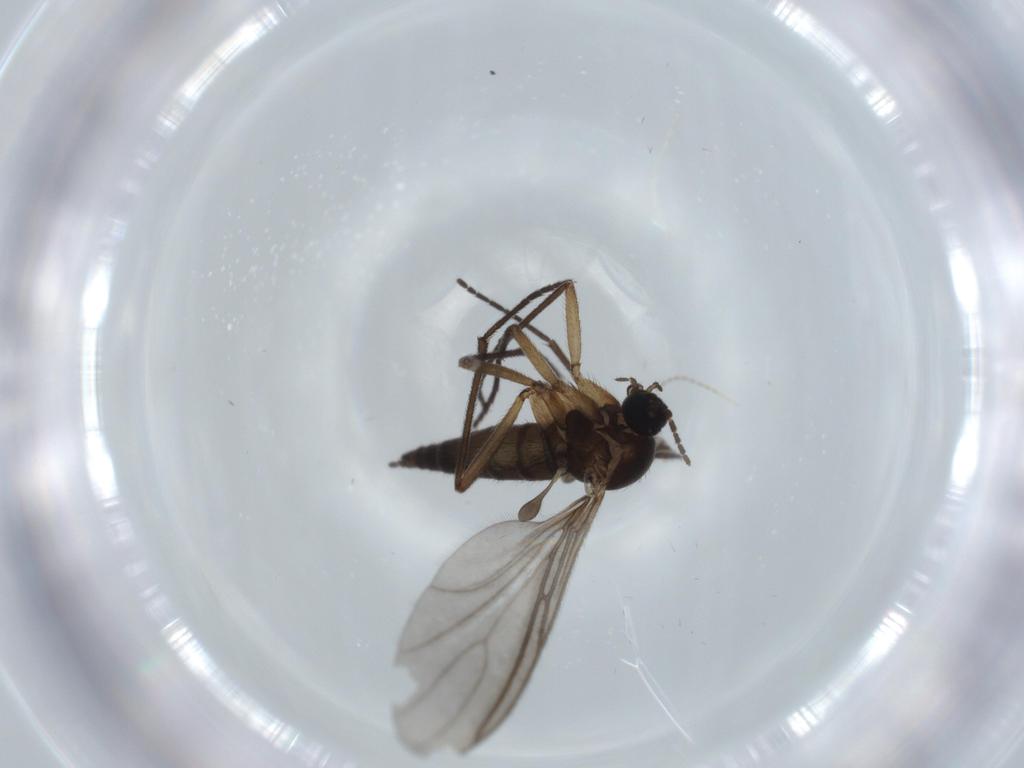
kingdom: Animalia
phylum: Arthropoda
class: Insecta
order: Diptera
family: Sciaridae
